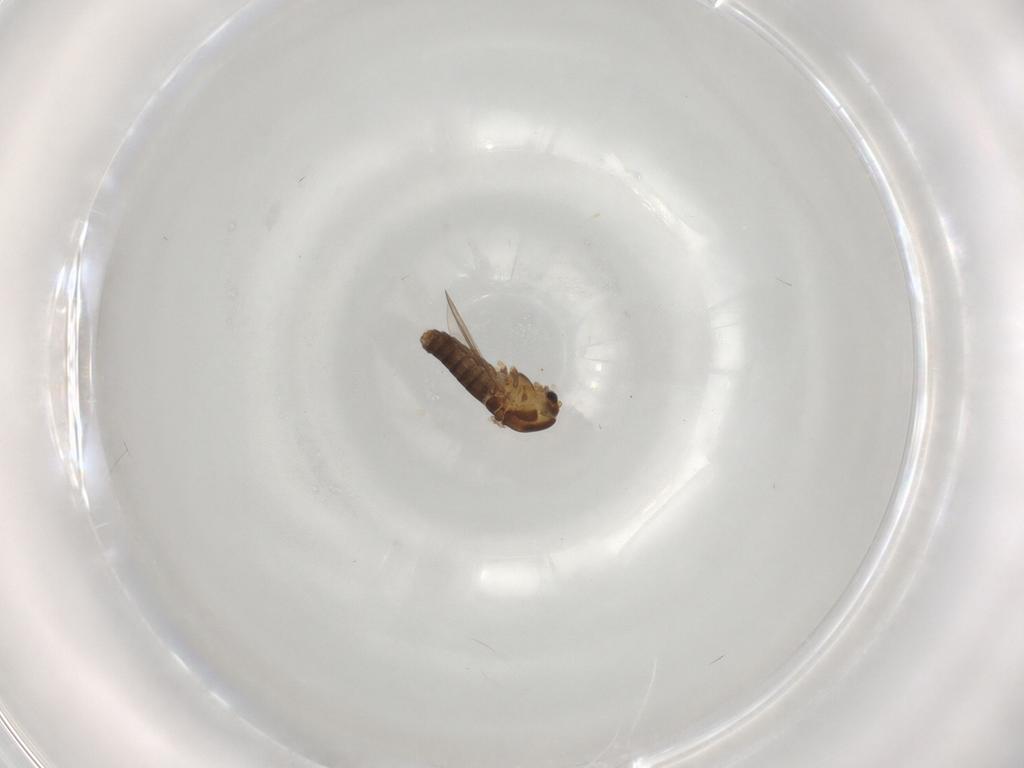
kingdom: Animalia
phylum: Arthropoda
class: Insecta
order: Diptera
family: Chironomidae
